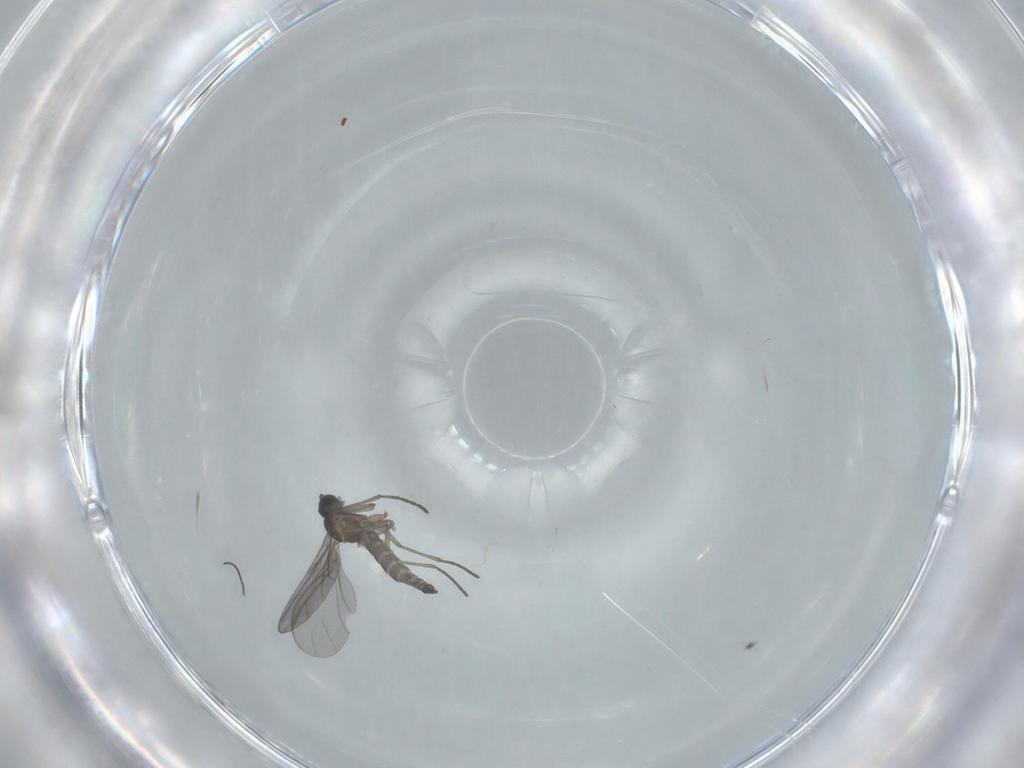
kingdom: Animalia
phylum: Arthropoda
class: Insecta
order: Diptera
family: Sciaridae
